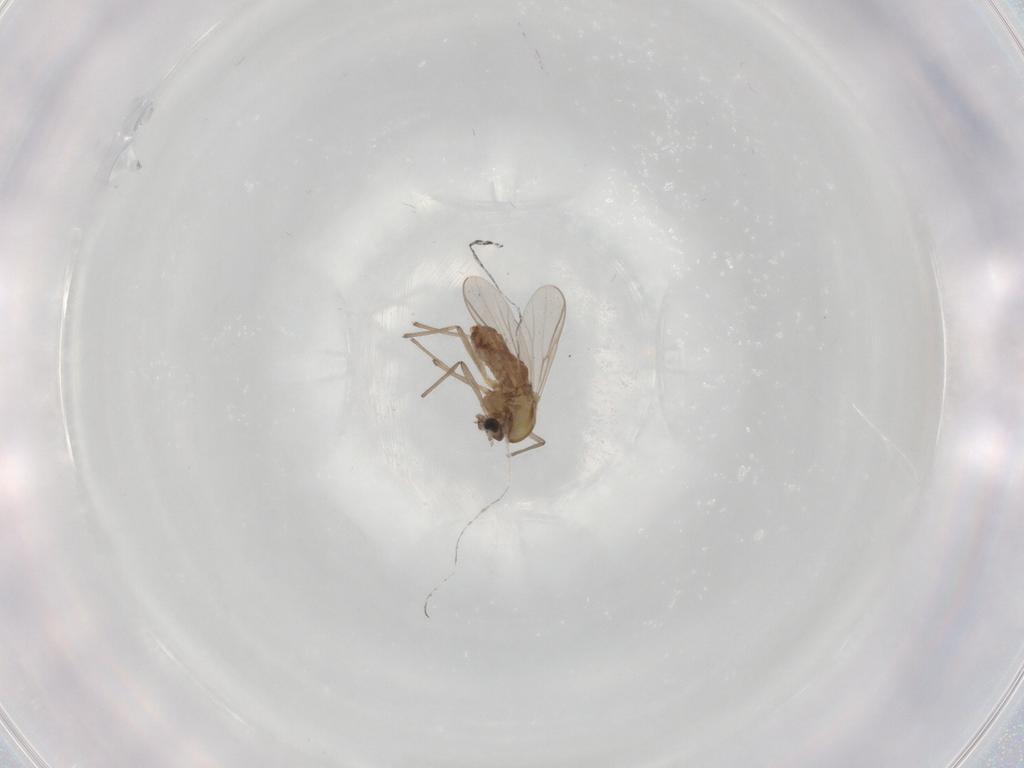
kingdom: Animalia
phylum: Arthropoda
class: Insecta
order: Diptera
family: Chironomidae
